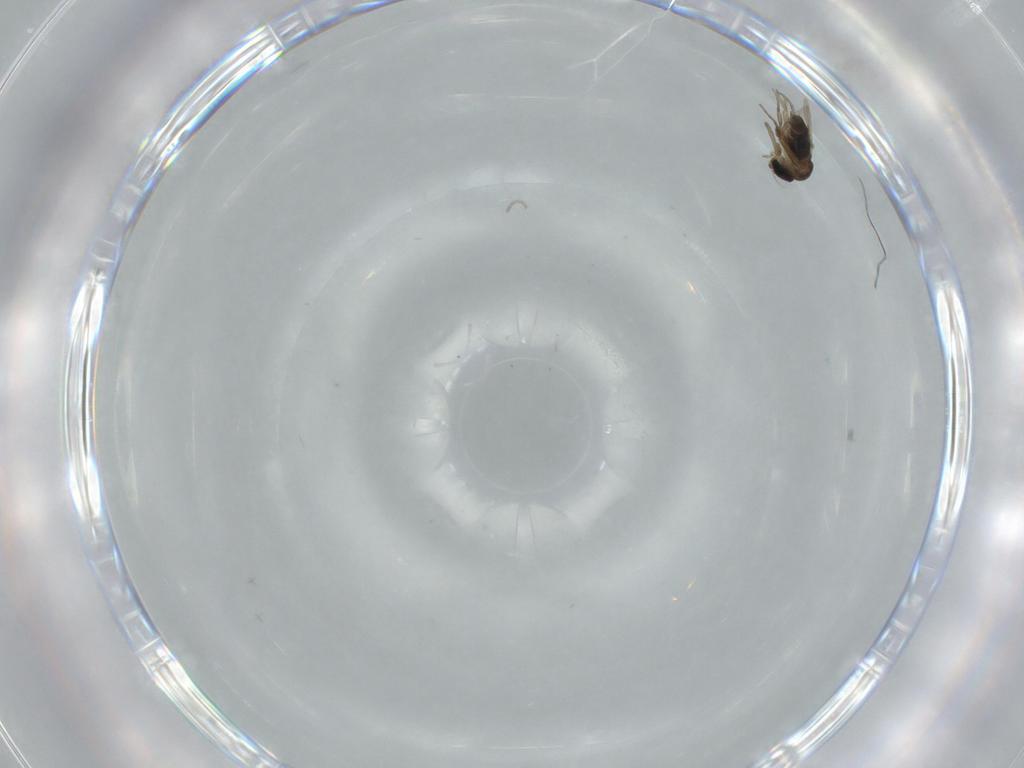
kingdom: Animalia
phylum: Arthropoda
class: Insecta
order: Diptera
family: Phoridae
